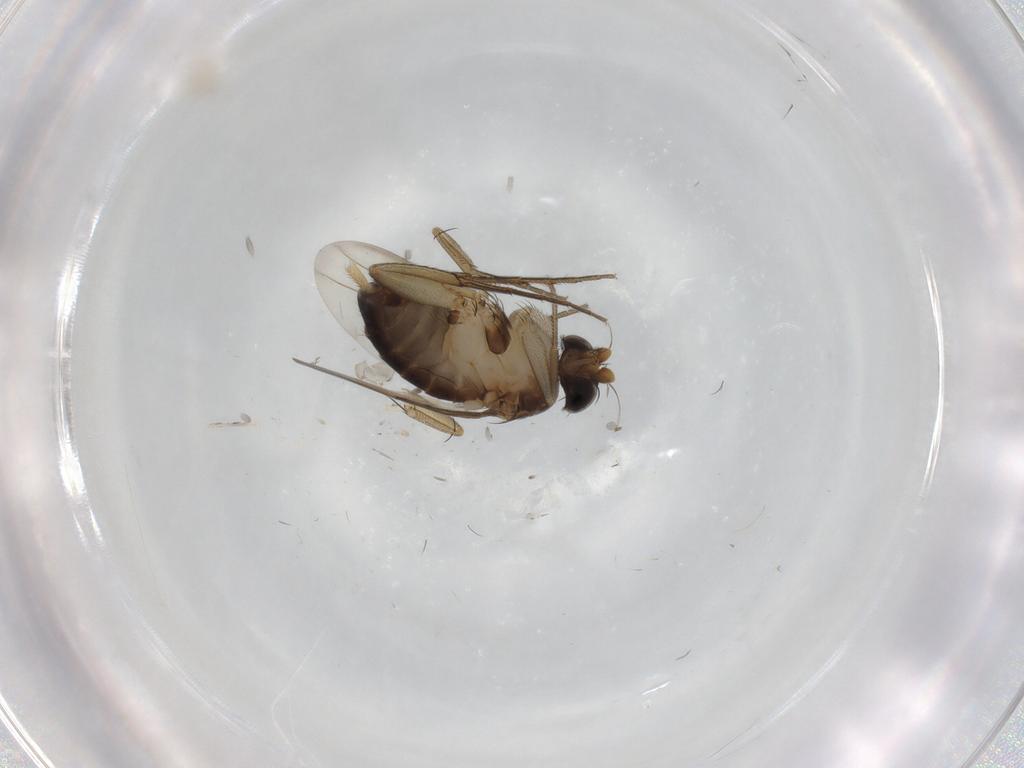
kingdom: Animalia
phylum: Arthropoda
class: Insecta
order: Diptera
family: Phoridae
